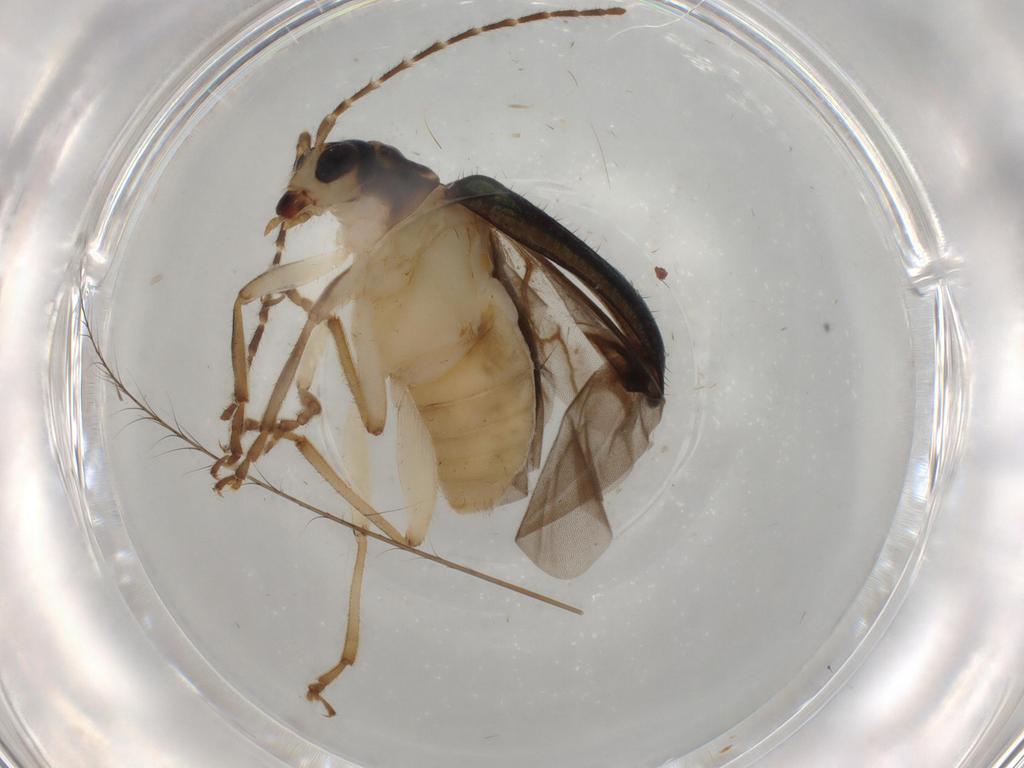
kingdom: Animalia
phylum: Arthropoda
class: Insecta
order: Coleoptera
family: Chrysomelidae
